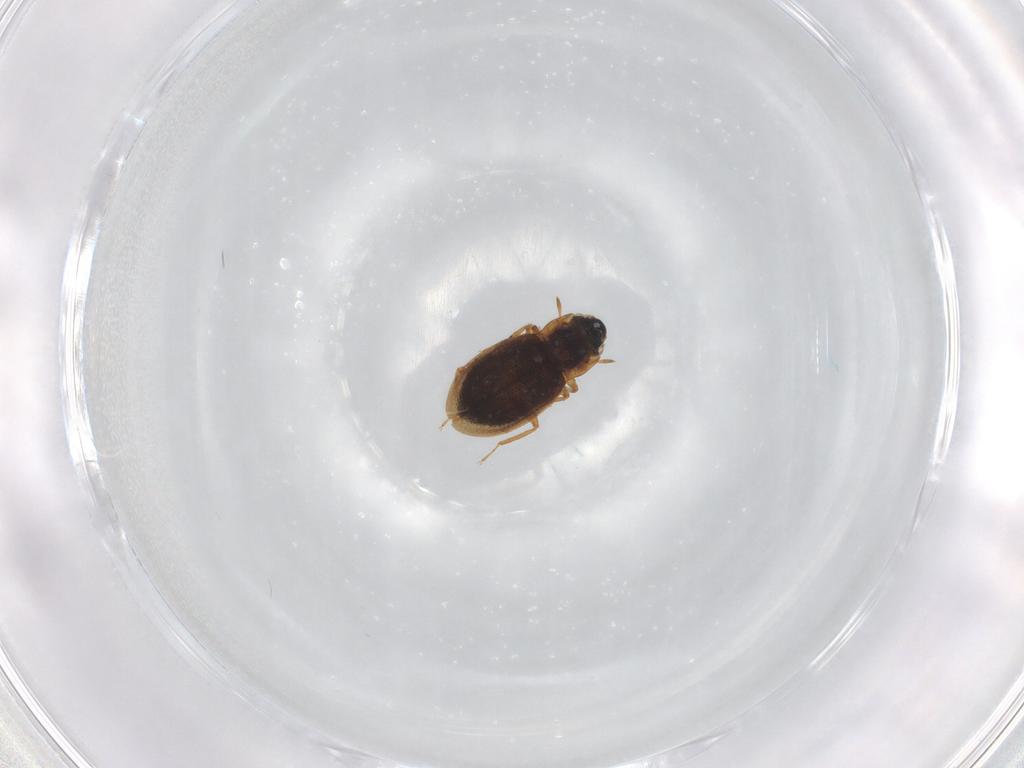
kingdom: Animalia
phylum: Arthropoda
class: Insecta
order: Coleoptera
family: Hydraenidae
